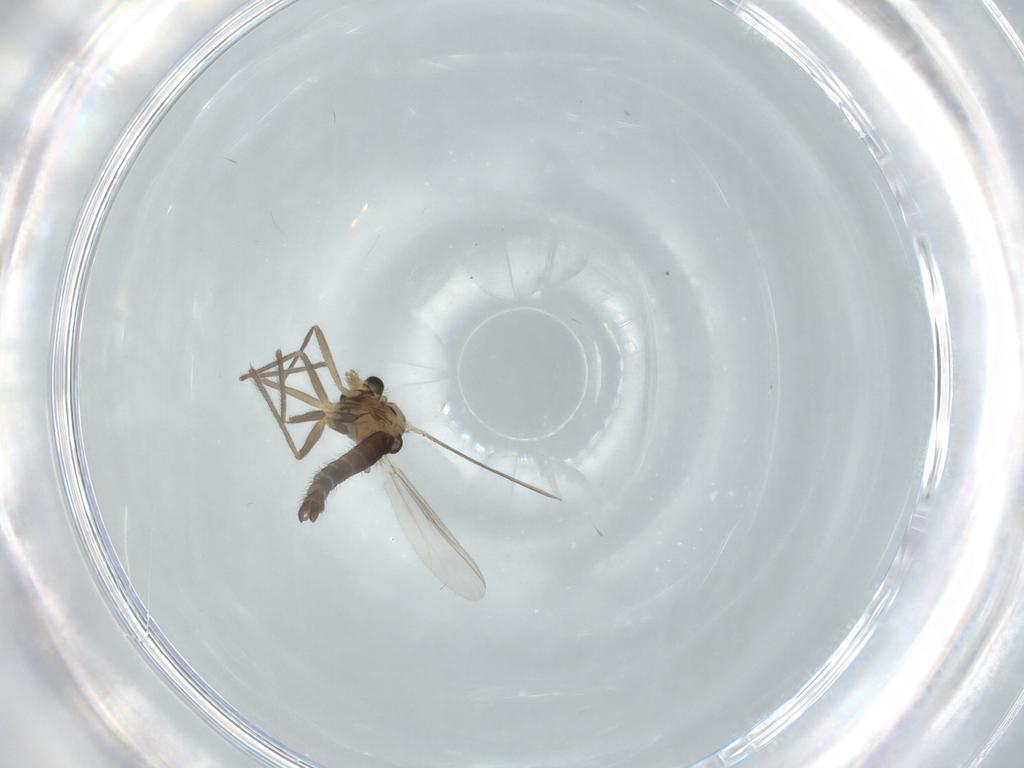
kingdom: Animalia
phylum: Arthropoda
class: Insecta
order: Diptera
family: Chironomidae
